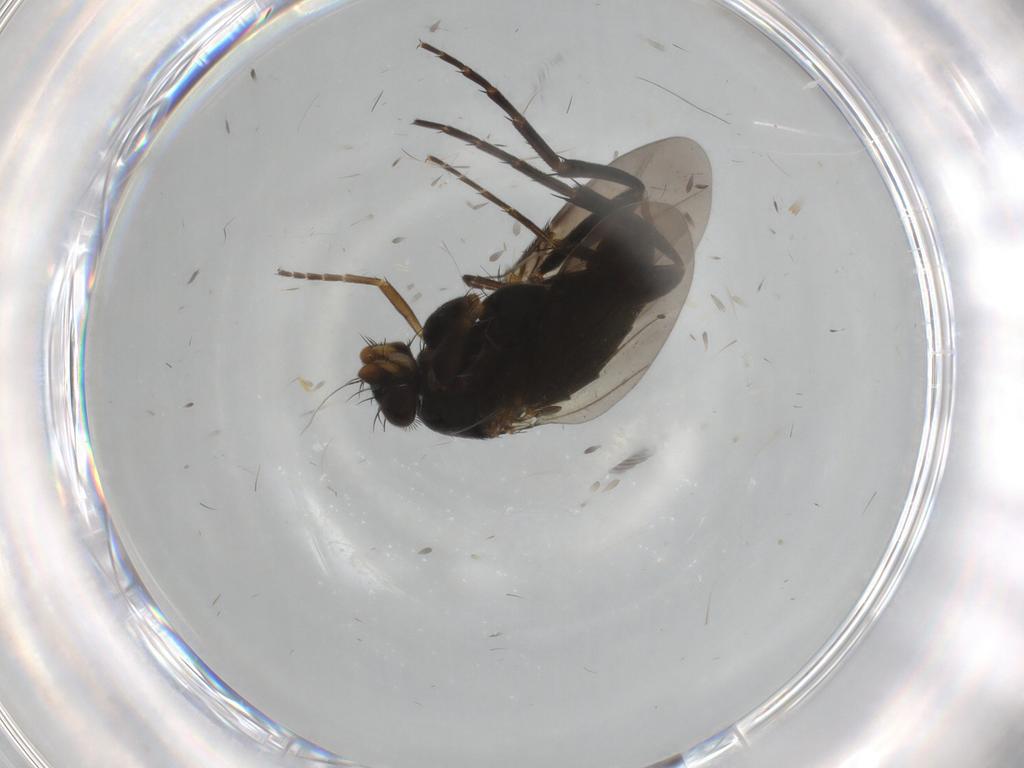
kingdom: Animalia
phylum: Arthropoda
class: Insecta
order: Diptera
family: Phoridae
